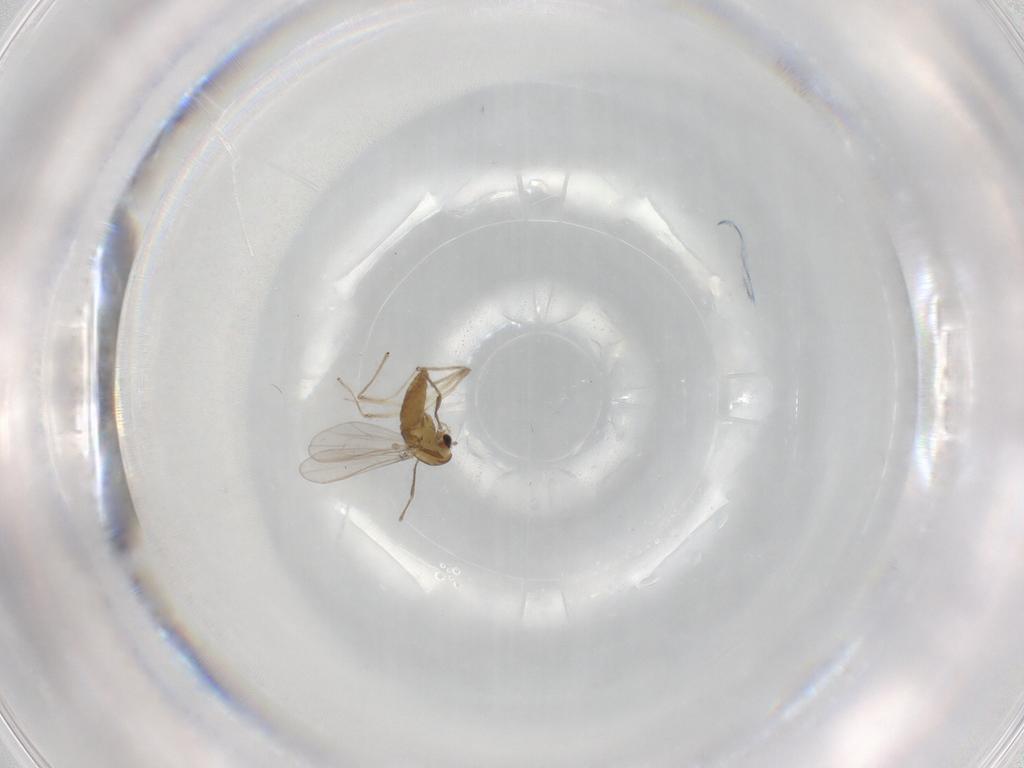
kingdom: Animalia
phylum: Arthropoda
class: Insecta
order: Diptera
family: Chironomidae
